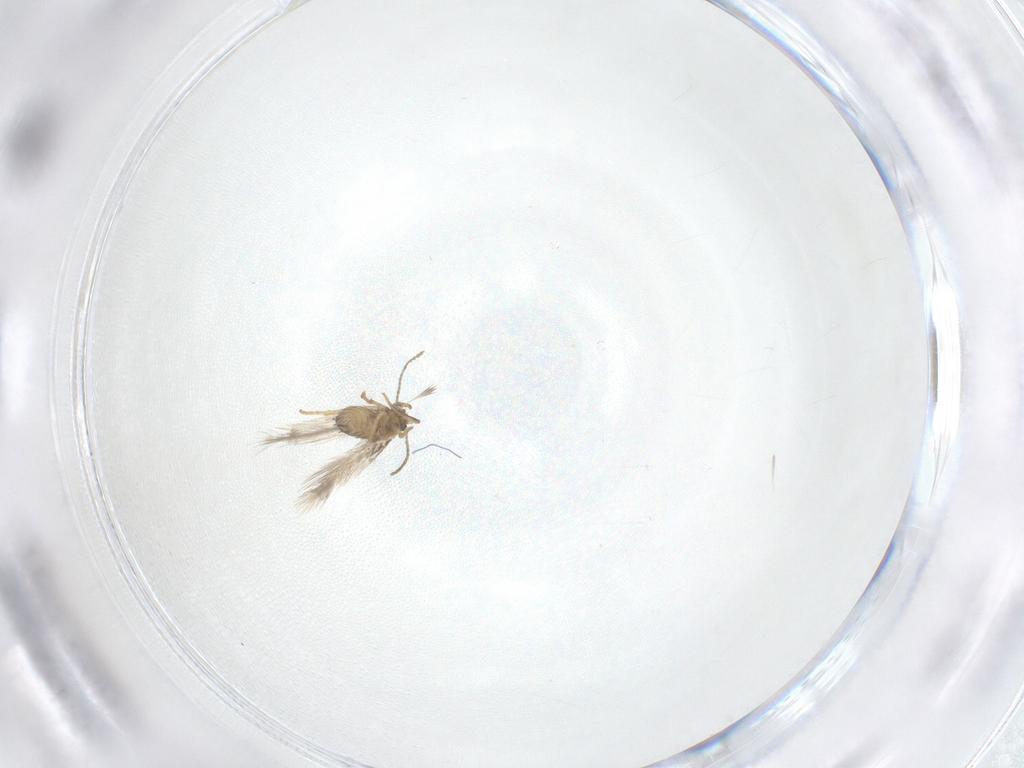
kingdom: Animalia
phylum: Arthropoda
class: Insecta
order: Lepidoptera
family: Nepticulidae
